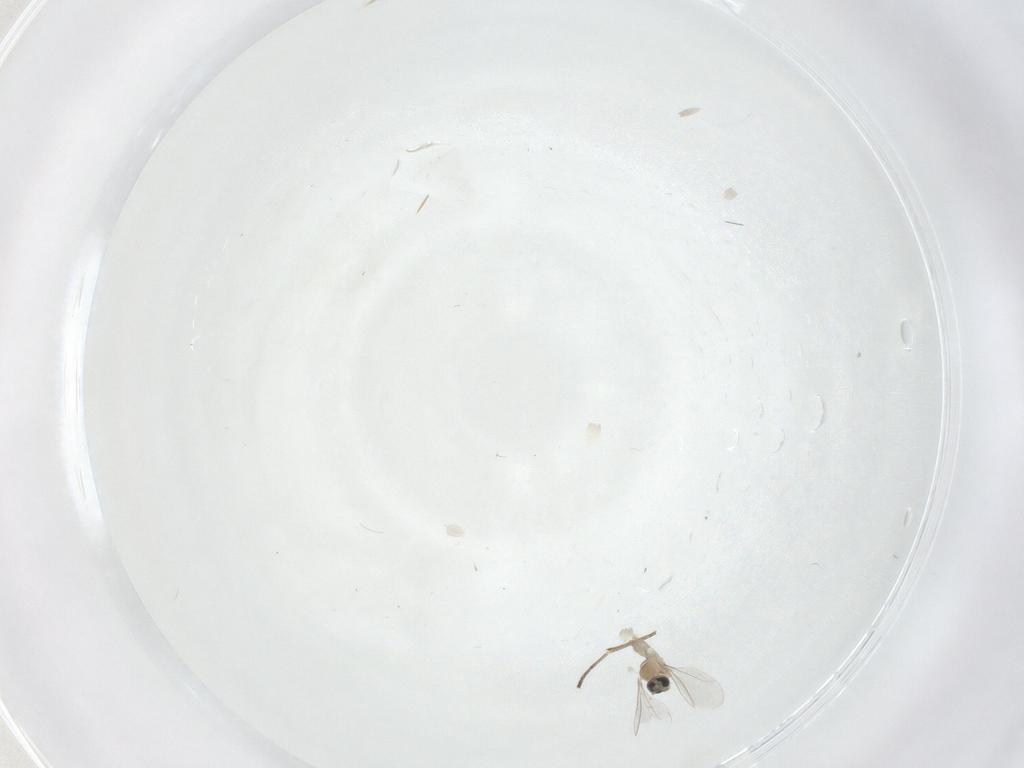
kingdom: Animalia
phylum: Arthropoda
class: Insecta
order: Diptera
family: Cecidomyiidae
